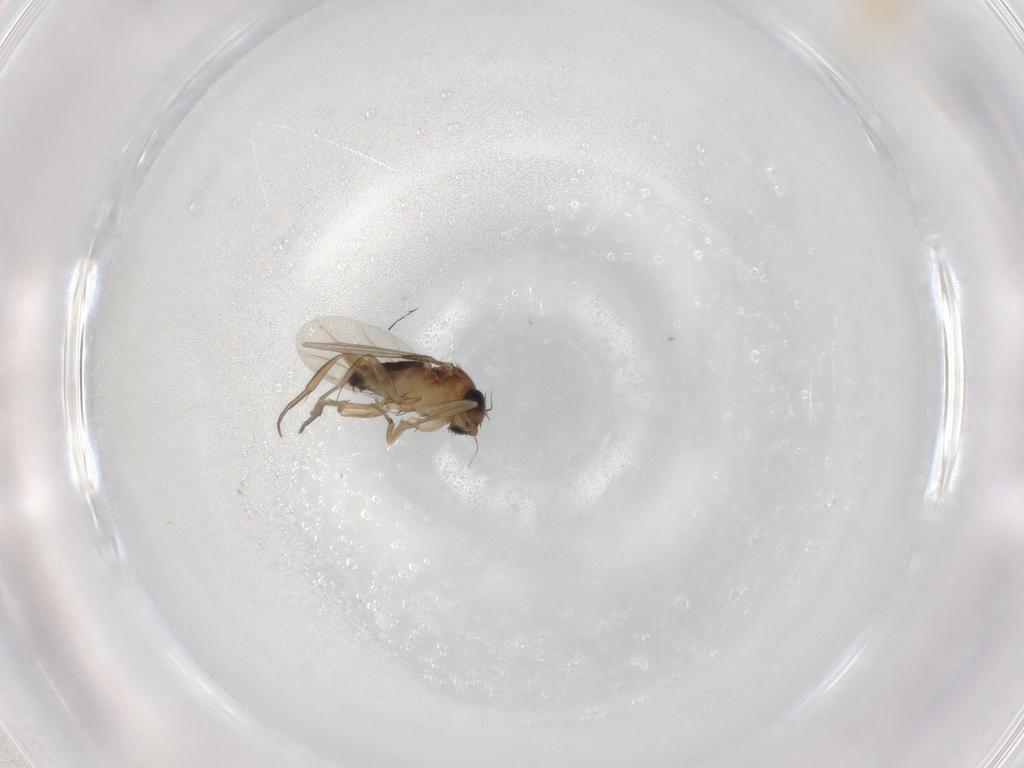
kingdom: Animalia
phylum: Arthropoda
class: Insecta
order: Diptera
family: Phoridae
